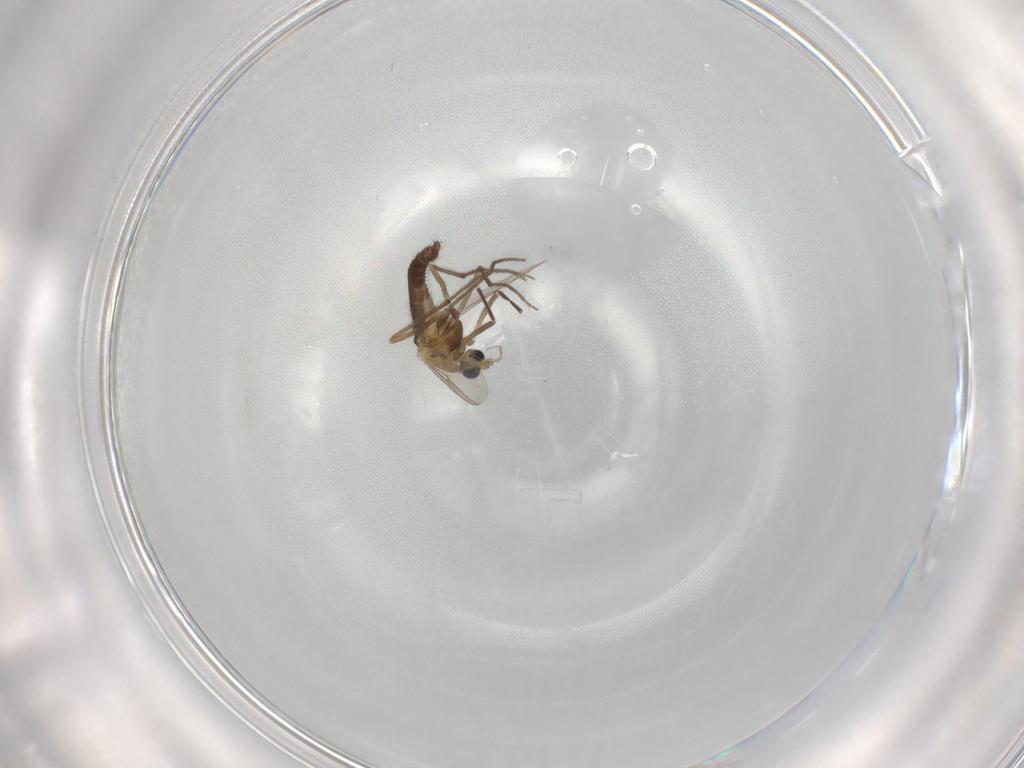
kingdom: Animalia
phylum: Arthropoda
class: Insecta
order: Diptera
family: Chironomidae
